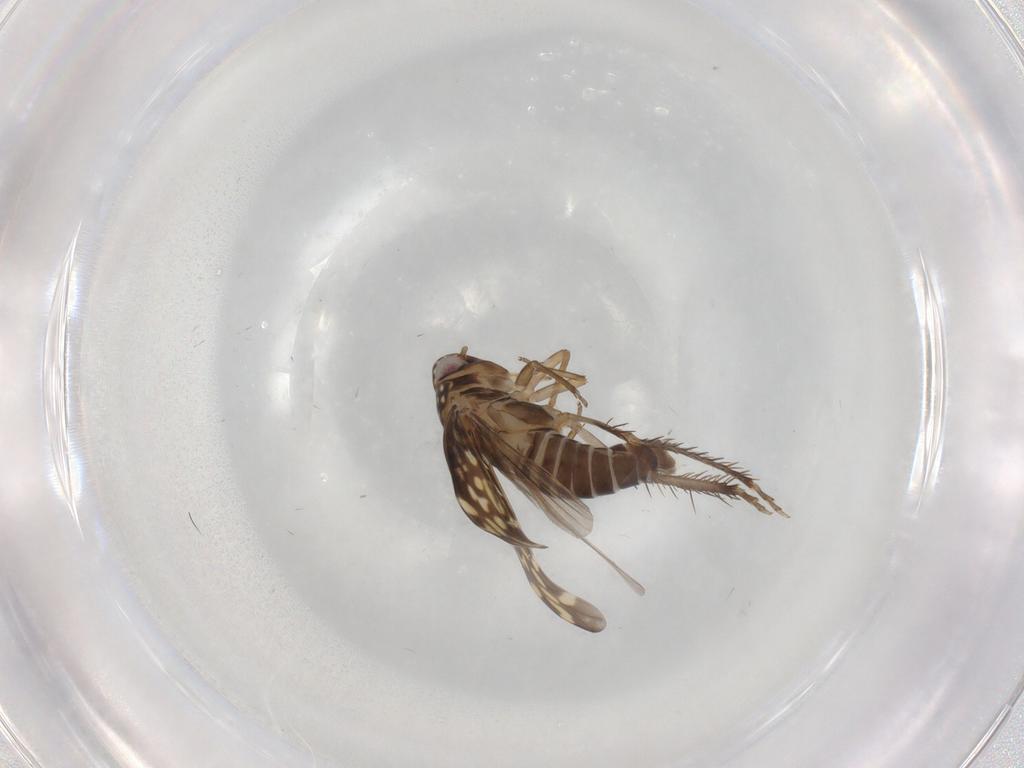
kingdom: Animalia
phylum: Arthropoda
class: Insecta
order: Hemiptera
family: Cicadellidae
